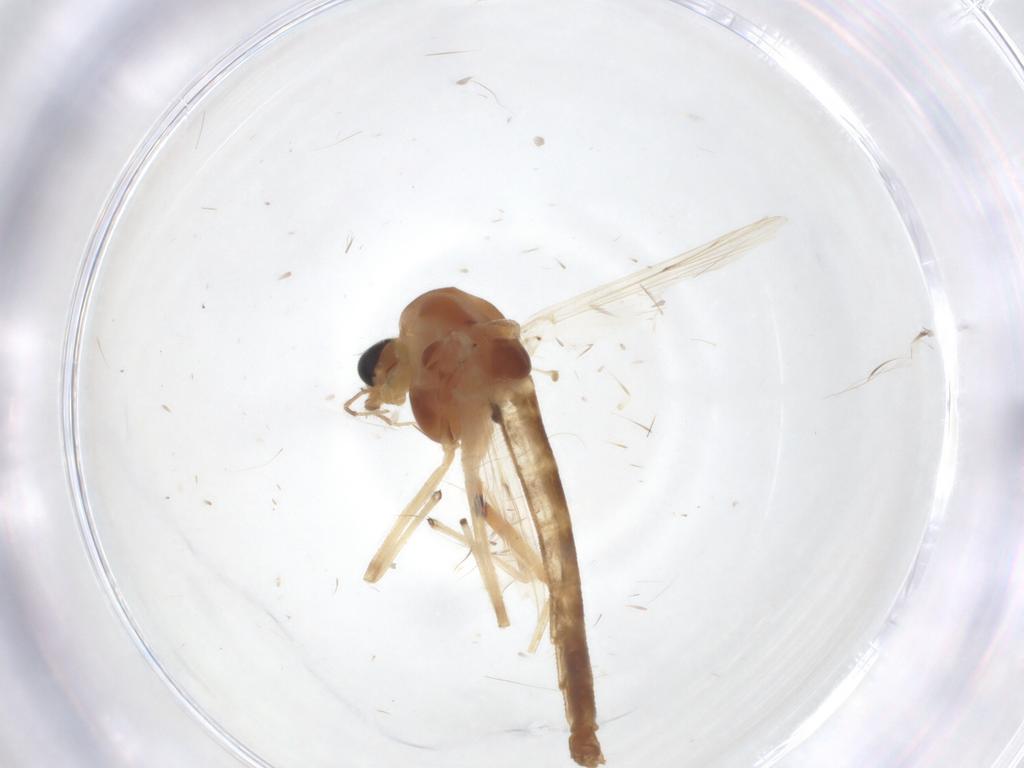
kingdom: Animalia
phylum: Arthropoda
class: Insecta
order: Diptera
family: Chironomidae
